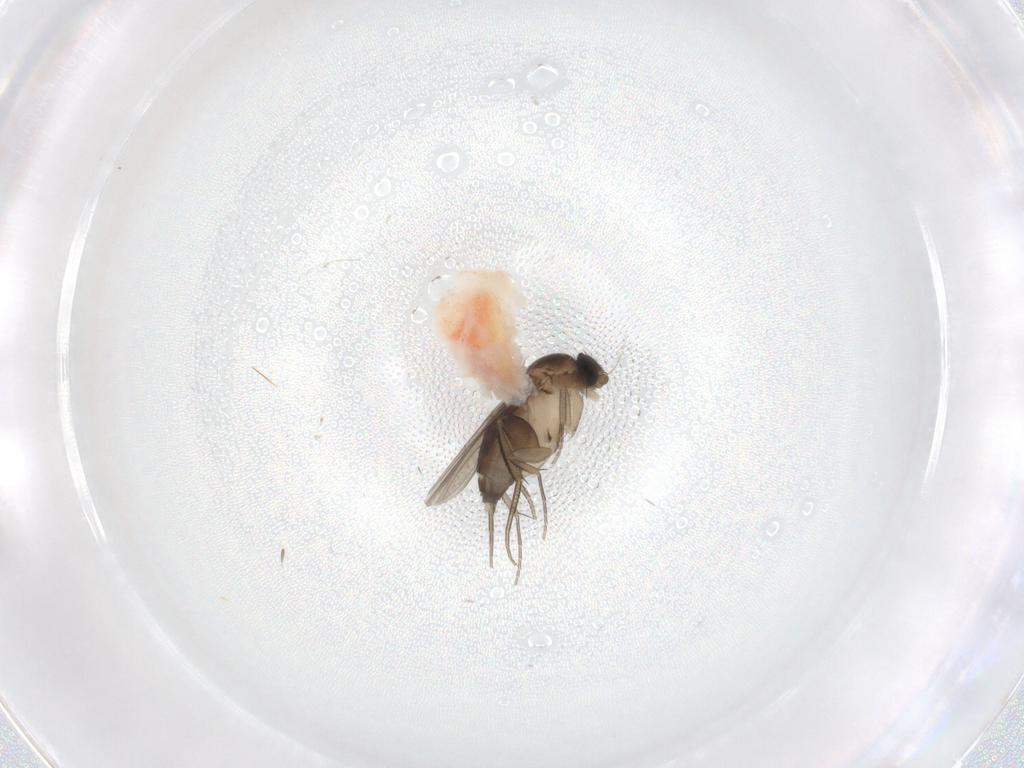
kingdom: Animalia
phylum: Arthropoda
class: Insecta
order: Diptera
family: Phoridae
